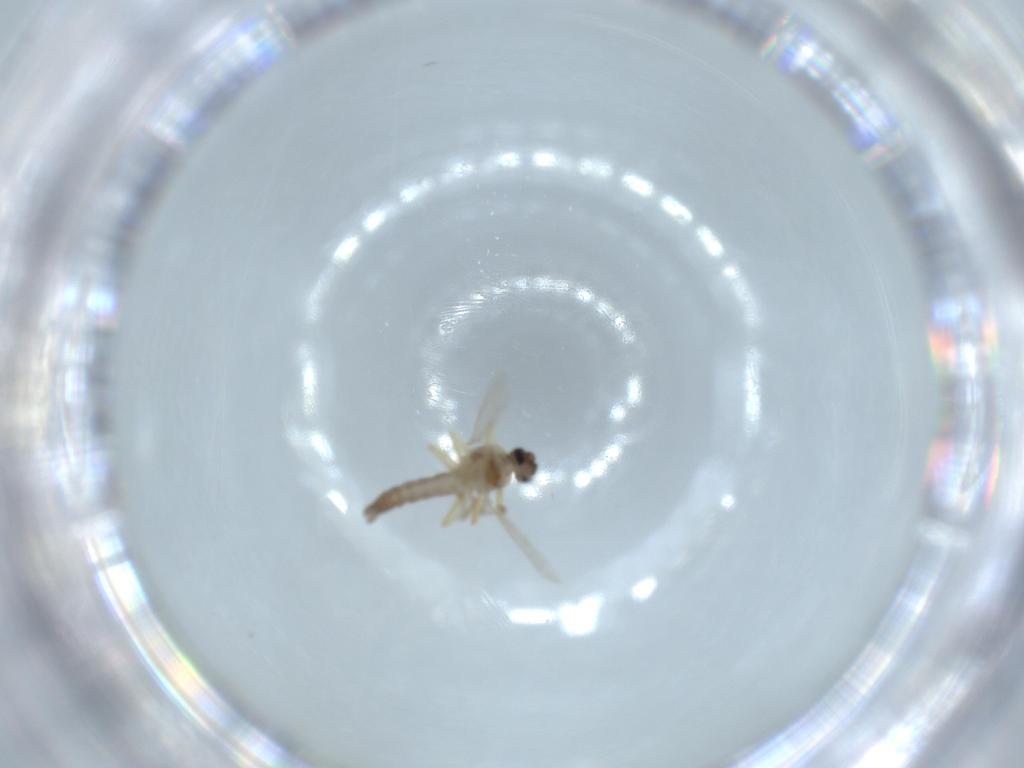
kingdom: Animalia
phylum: Arthropoda
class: Insecta
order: Diptera
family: Ceratopogonidae
